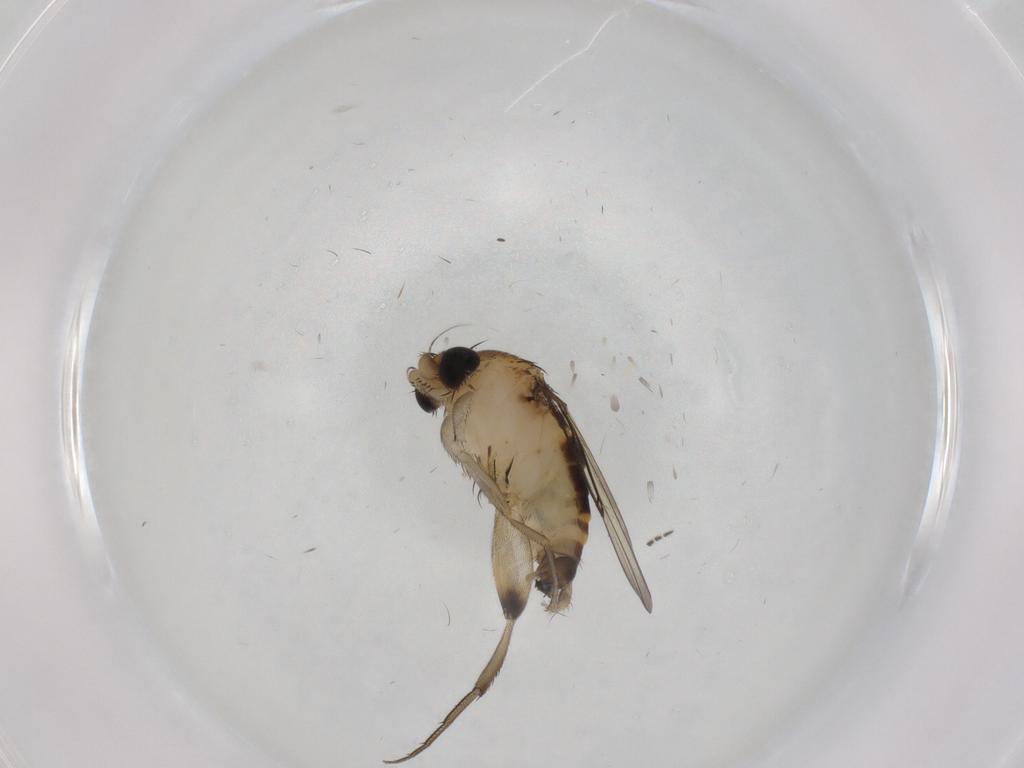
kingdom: Animalia
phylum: Arthropoda
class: Insecta
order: Diptera
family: Phoridae
